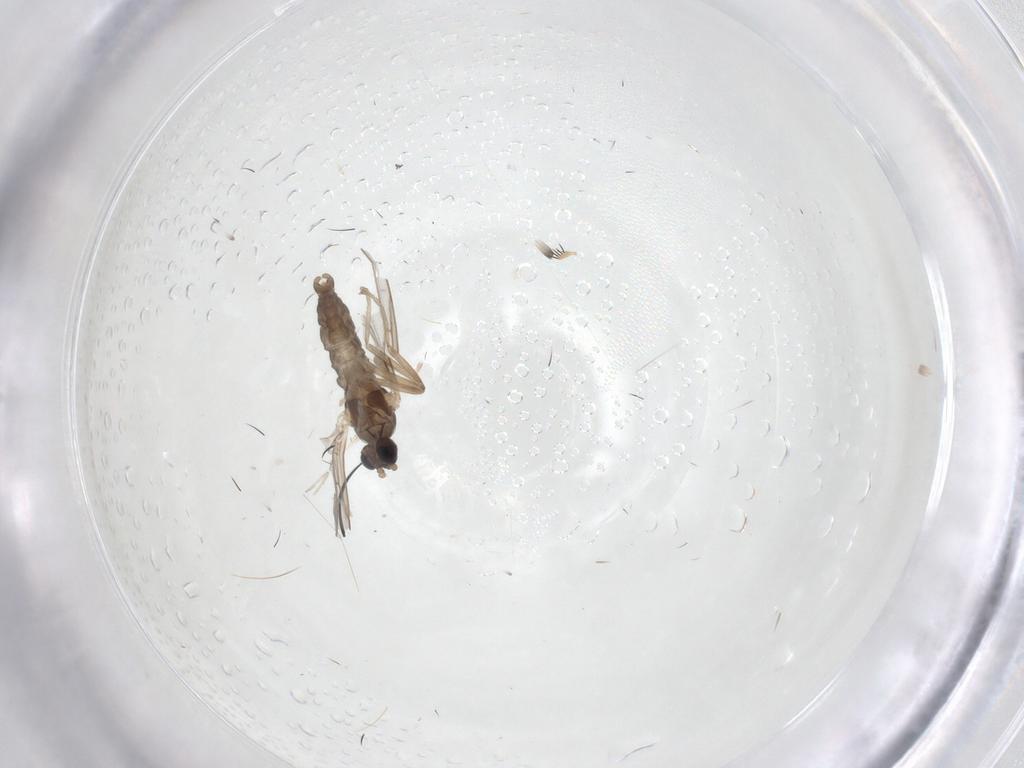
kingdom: Animalia
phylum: Arthropoda
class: Insecta
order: Diptera
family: Cecidomyiidae
